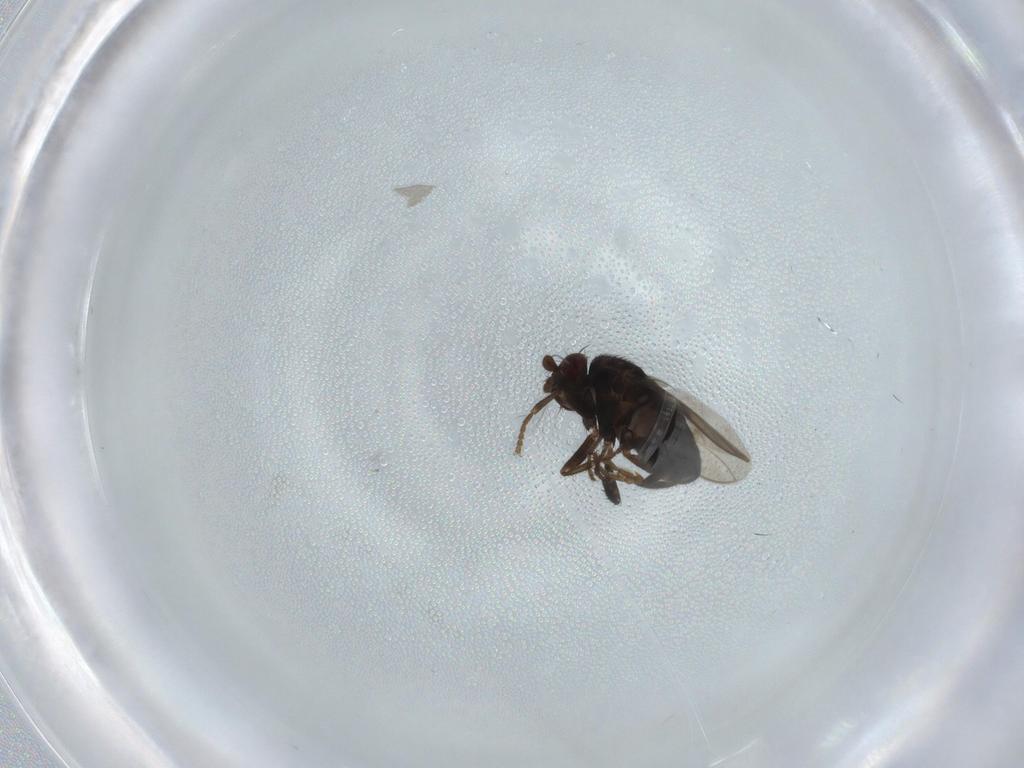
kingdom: Animalia
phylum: Arthropoda
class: Insecta
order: Diptera
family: Sphaeroceridae
